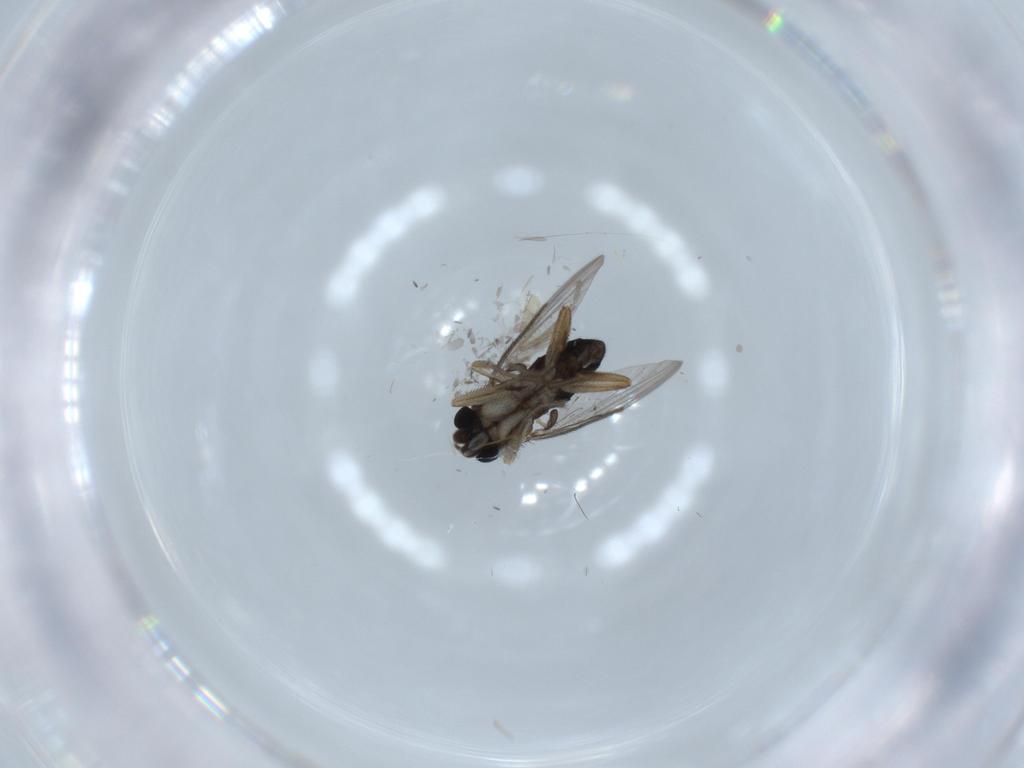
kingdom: Animalia
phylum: Arthropoda
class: Insecta
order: Diptera
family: Phoridae
